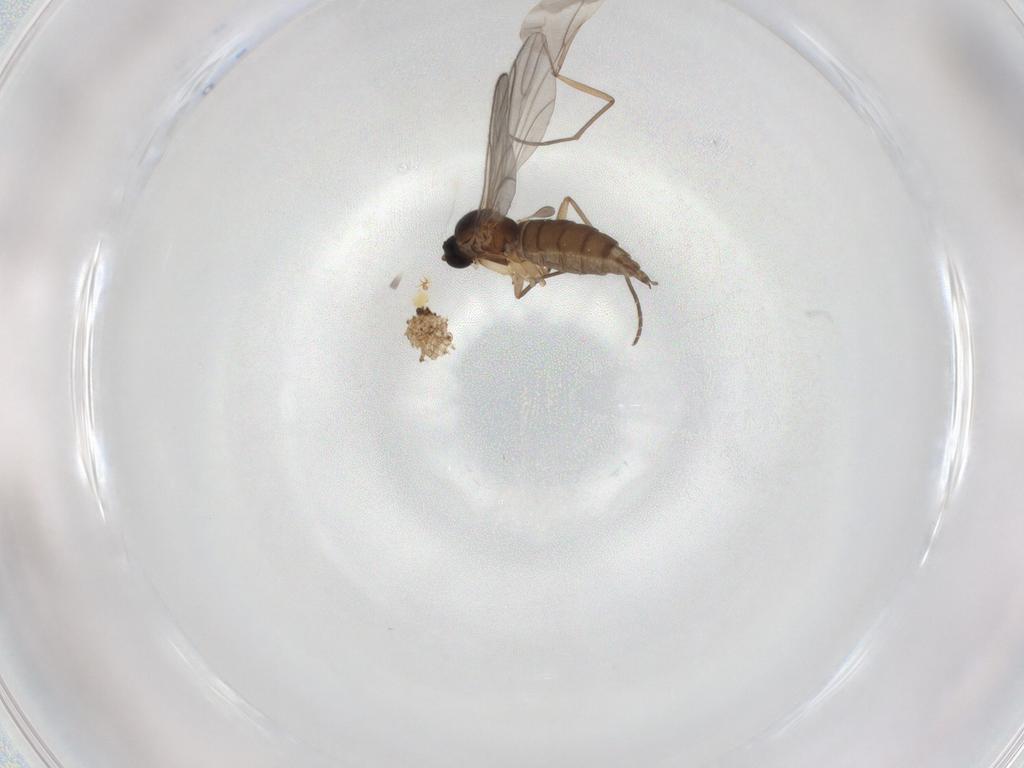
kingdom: Animalia
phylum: Arthropoda
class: Insecta
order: Diptera
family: Sciaridae
